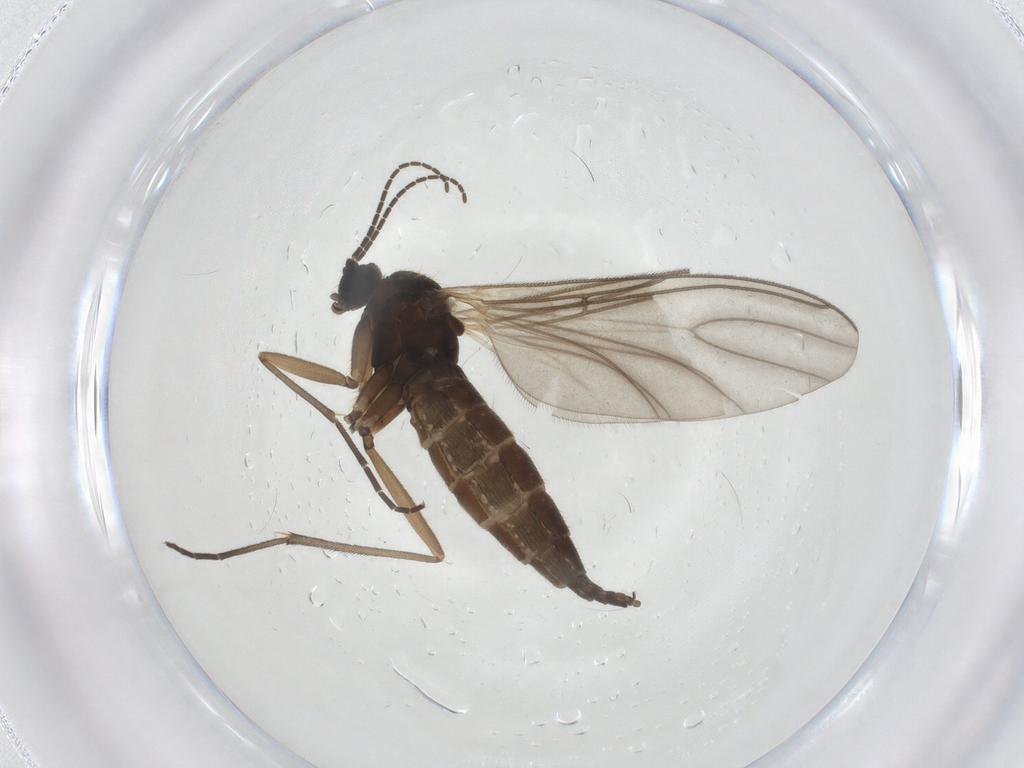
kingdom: Animalia
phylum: Arthropoda
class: Insecta
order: Diptera
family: Sciaridae
